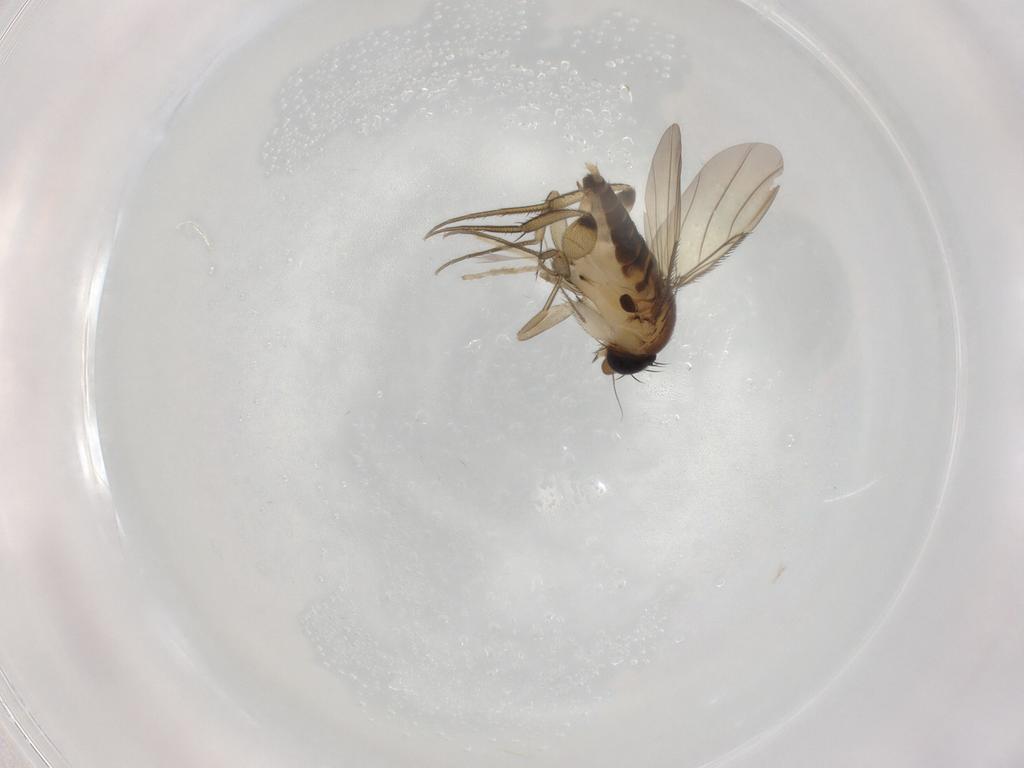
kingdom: Animalia
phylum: Arthropoda
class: Insecta
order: Diptera
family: Phoridae
